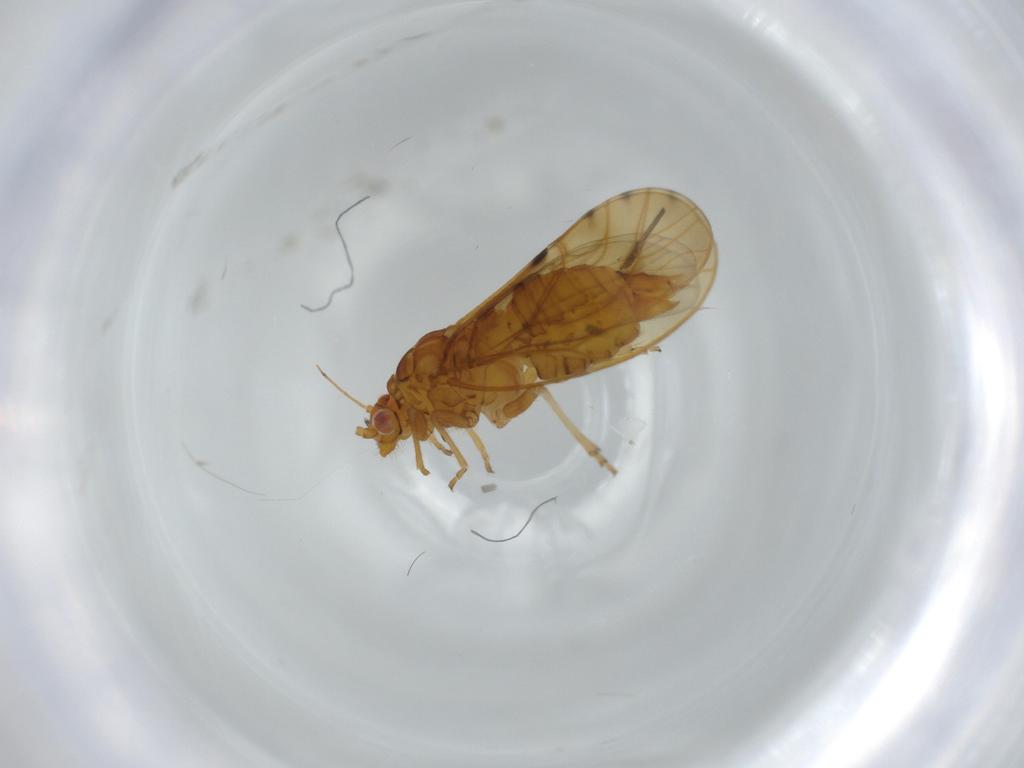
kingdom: Animalia
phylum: Arthropoda
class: Insecta
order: Hemiptera
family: Psylloidea_incertae_sedis
